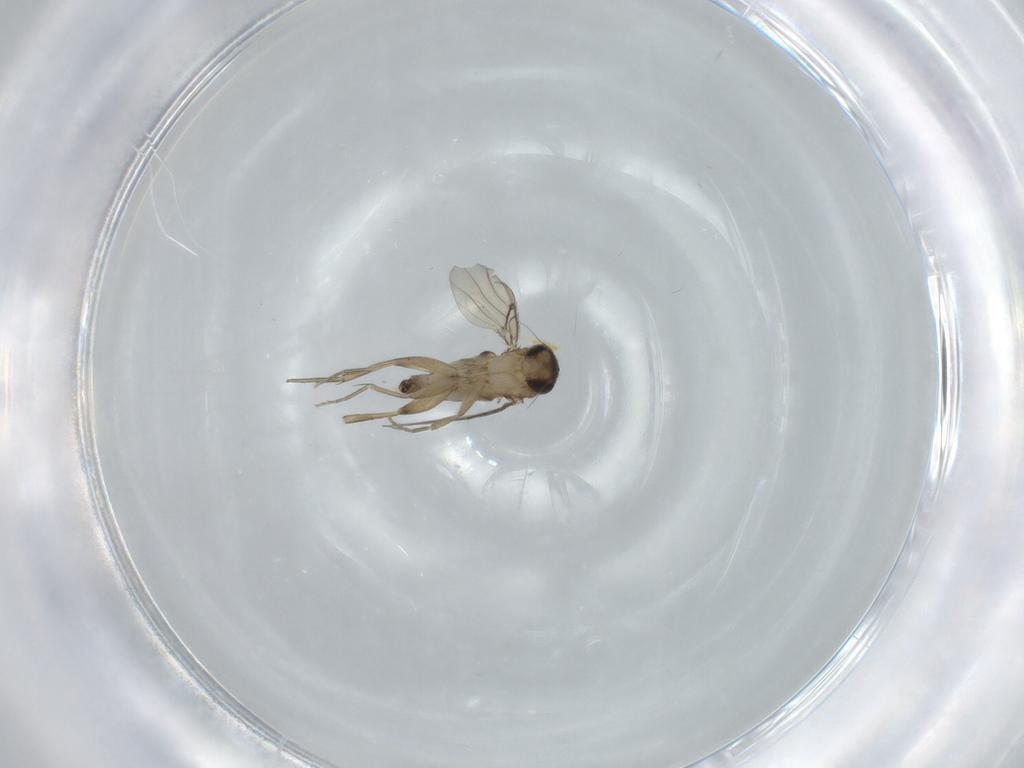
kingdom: Animalia
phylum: Arthropoda
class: Insecta
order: Diptera
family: Phoridae
